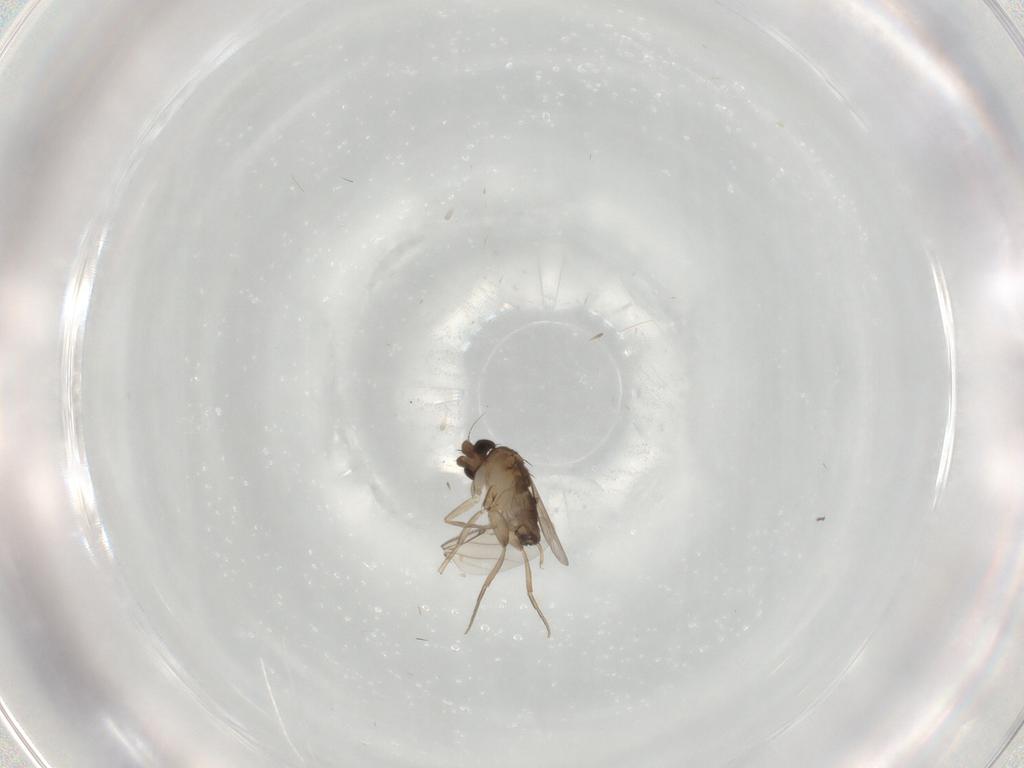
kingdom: Animalia
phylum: Arthropoda
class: Insecta
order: Diptera
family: Phoridae
